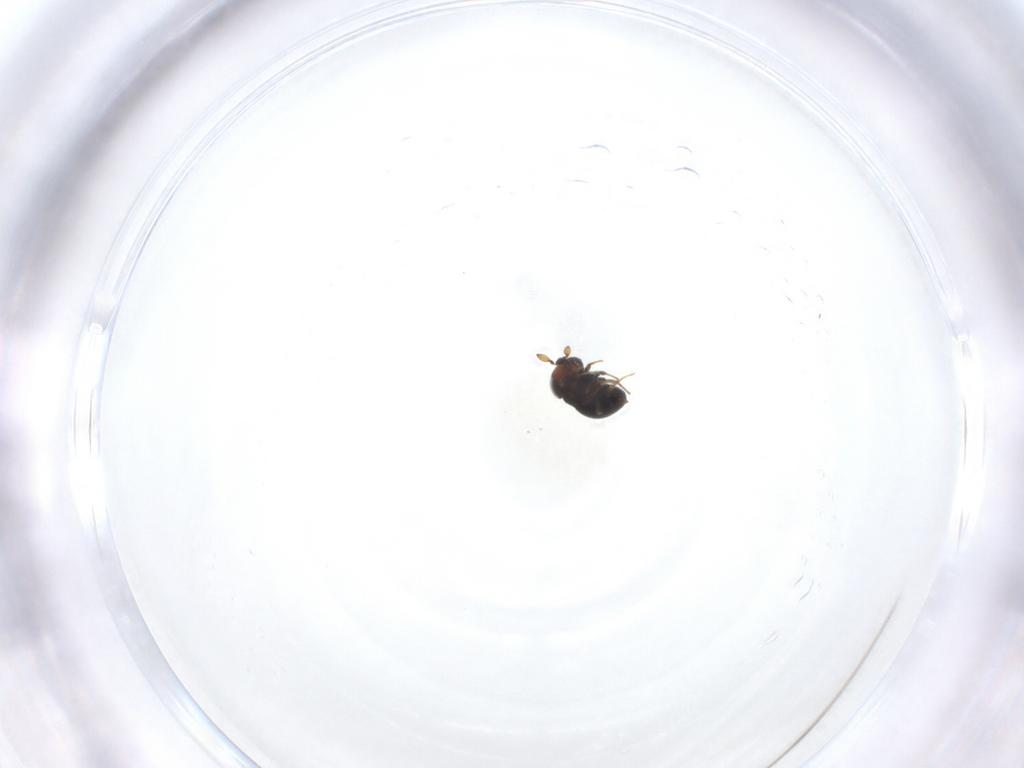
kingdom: Animalia
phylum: Arthropoda
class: Insecta
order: Hymenoptera
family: Scelionidae
